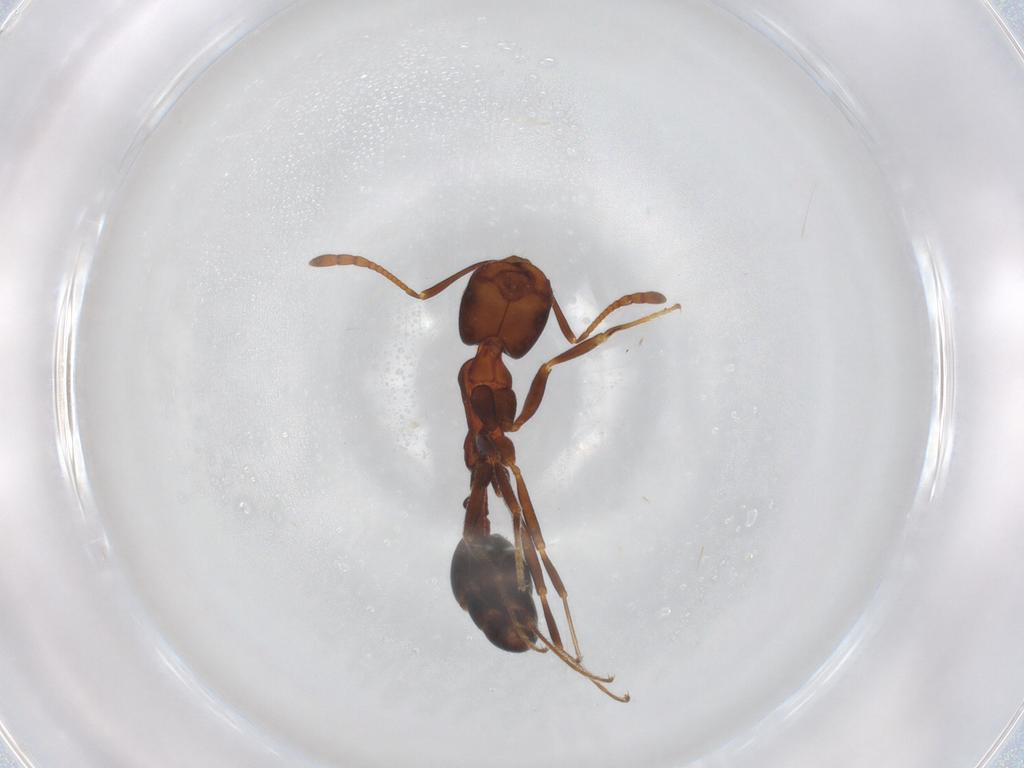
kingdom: Animalia
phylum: Arthropoda
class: Insecta
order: Hymenoptera
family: Formicidae
